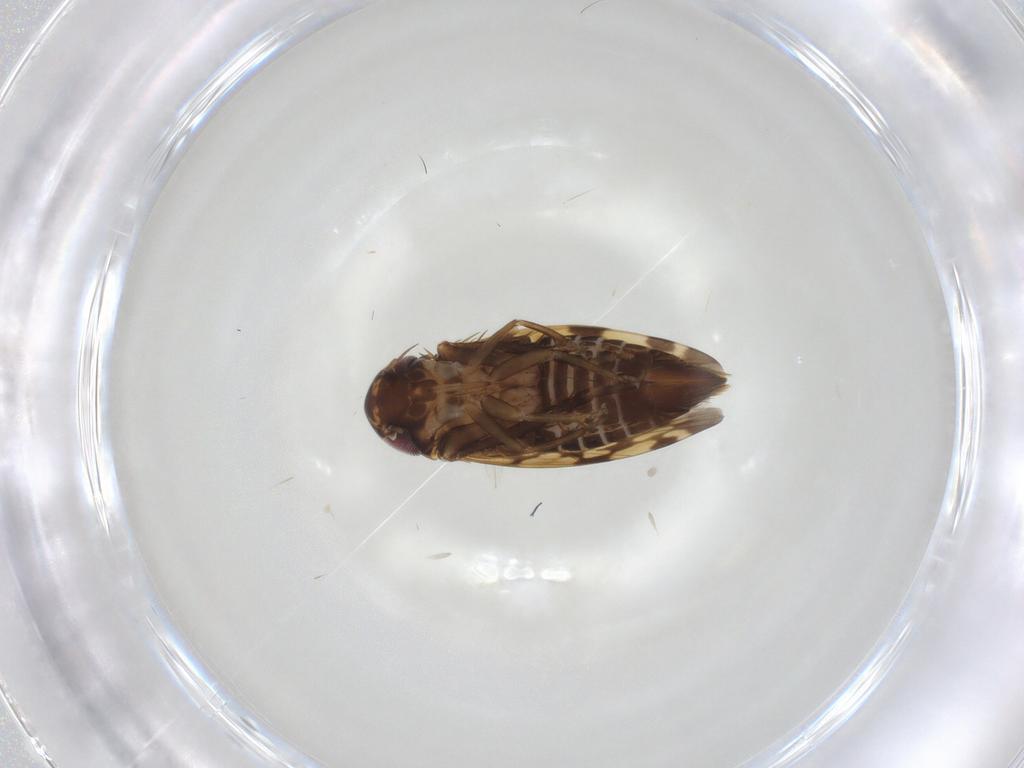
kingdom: Animalia
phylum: Arthropoda
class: Insecta
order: Hemiptera
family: Cicadellidae
